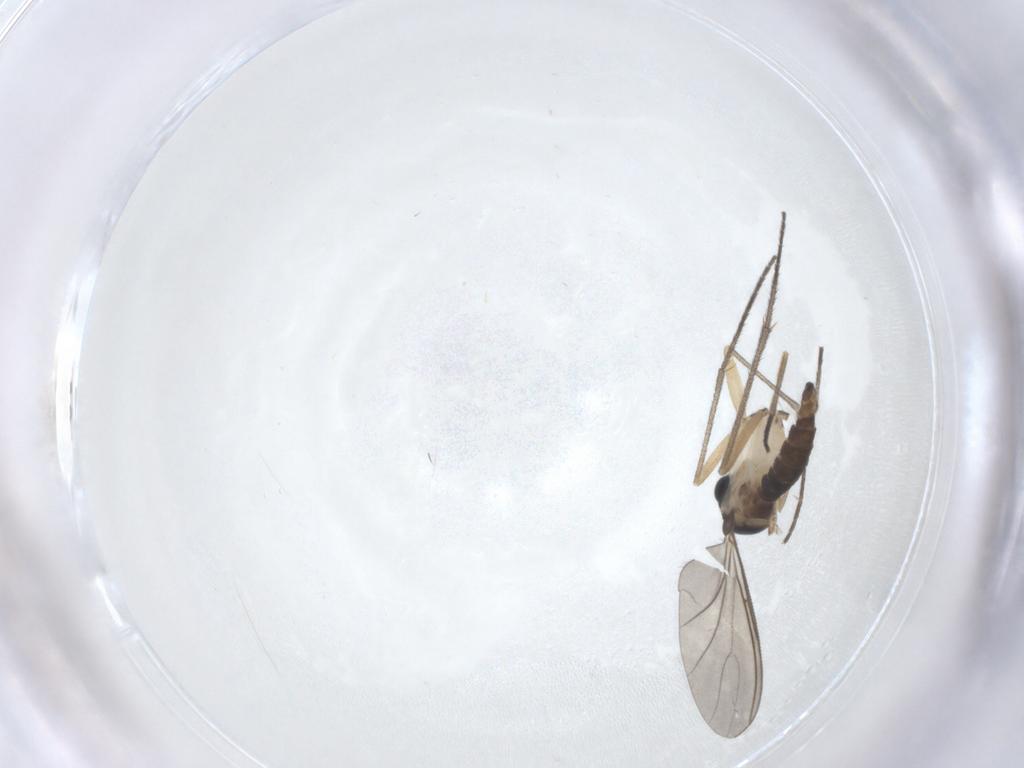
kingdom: Animalia
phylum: Arthropoda
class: Insecta
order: Diptera
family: Sciaridae
